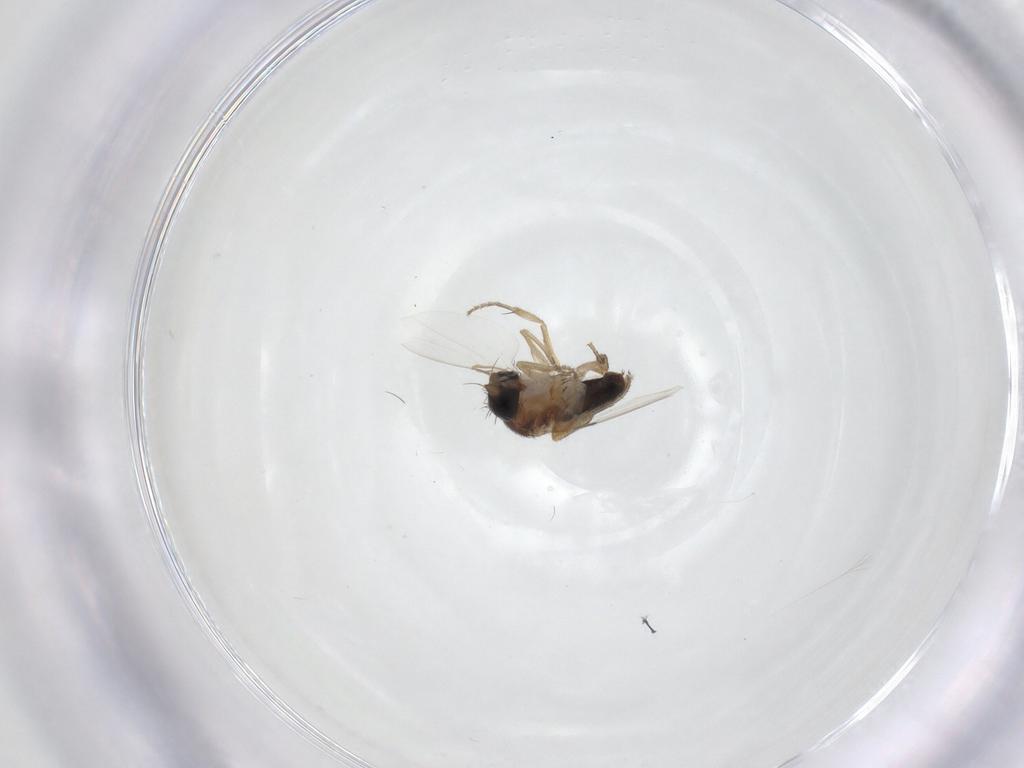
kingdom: Animalia
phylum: Arthropoda
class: Insecta
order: Diptera
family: Phoridae
